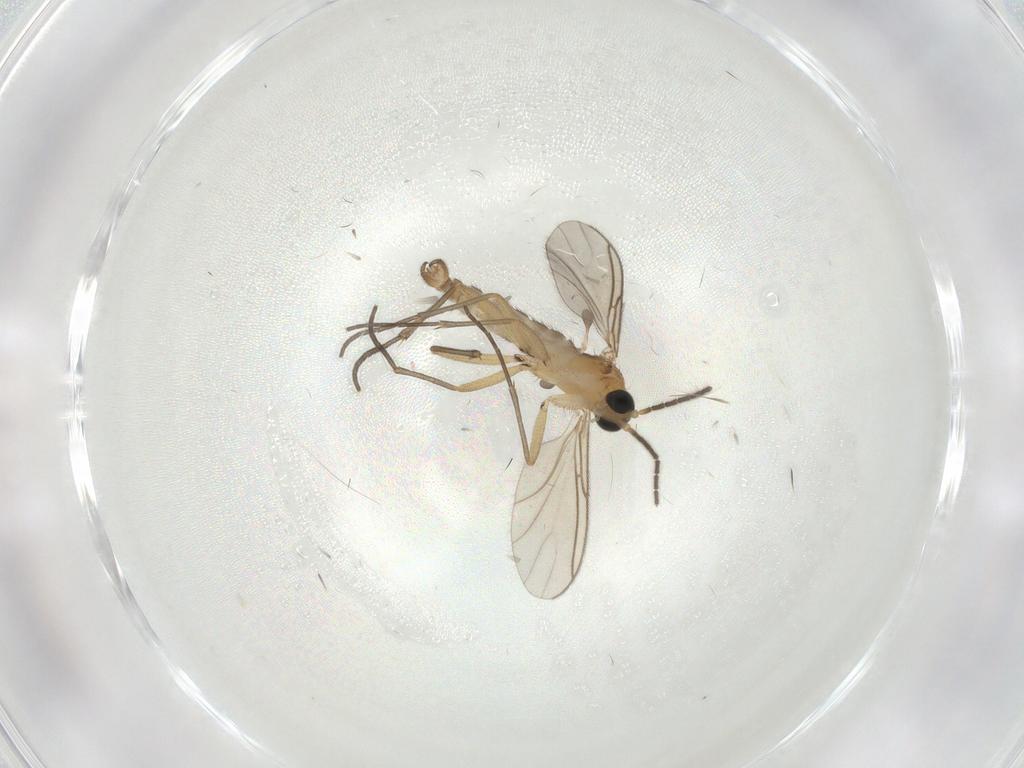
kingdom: Animalia
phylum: Arthropoda
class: Insecta
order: Diptera
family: Sciaridae
